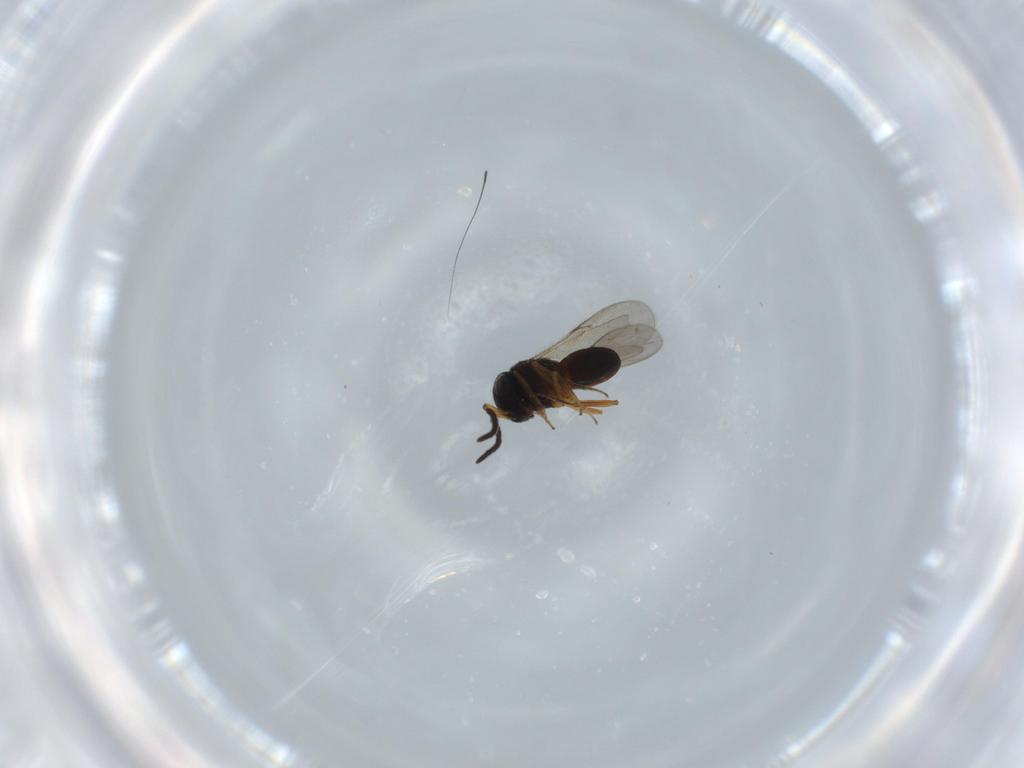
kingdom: Animalia
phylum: Arthropoda
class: Insecta
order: Hymenoptera
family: Scelionidae
